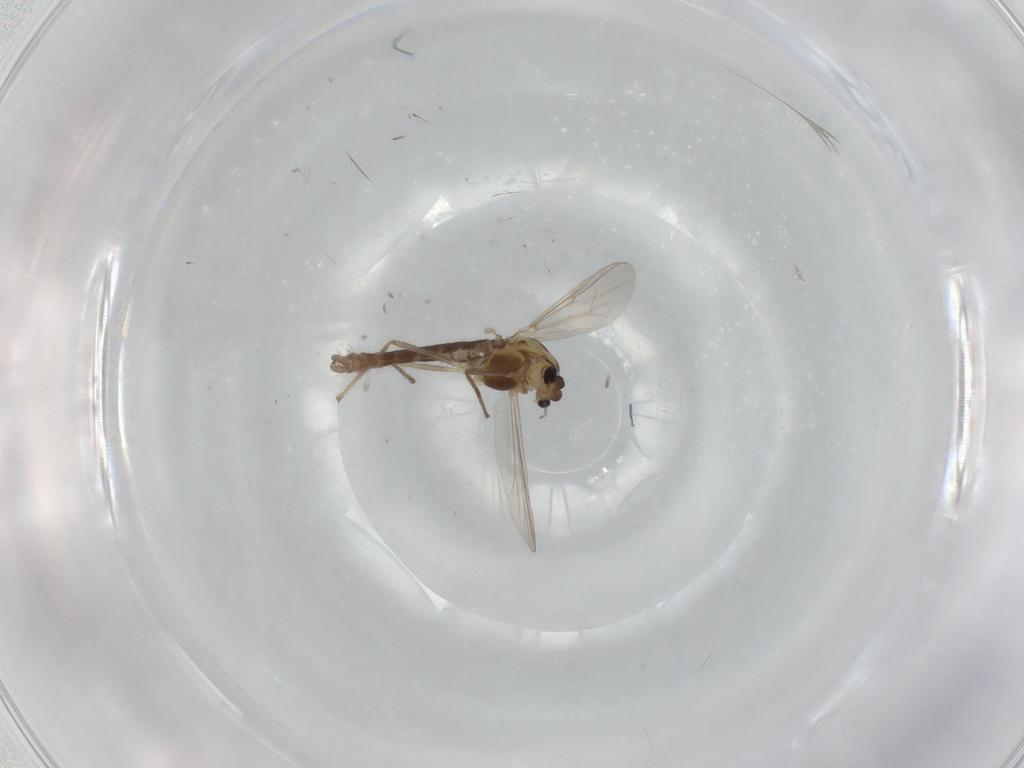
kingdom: Animalia
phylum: Arthropoda
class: Insecta
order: Diptera
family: Chironomidae
